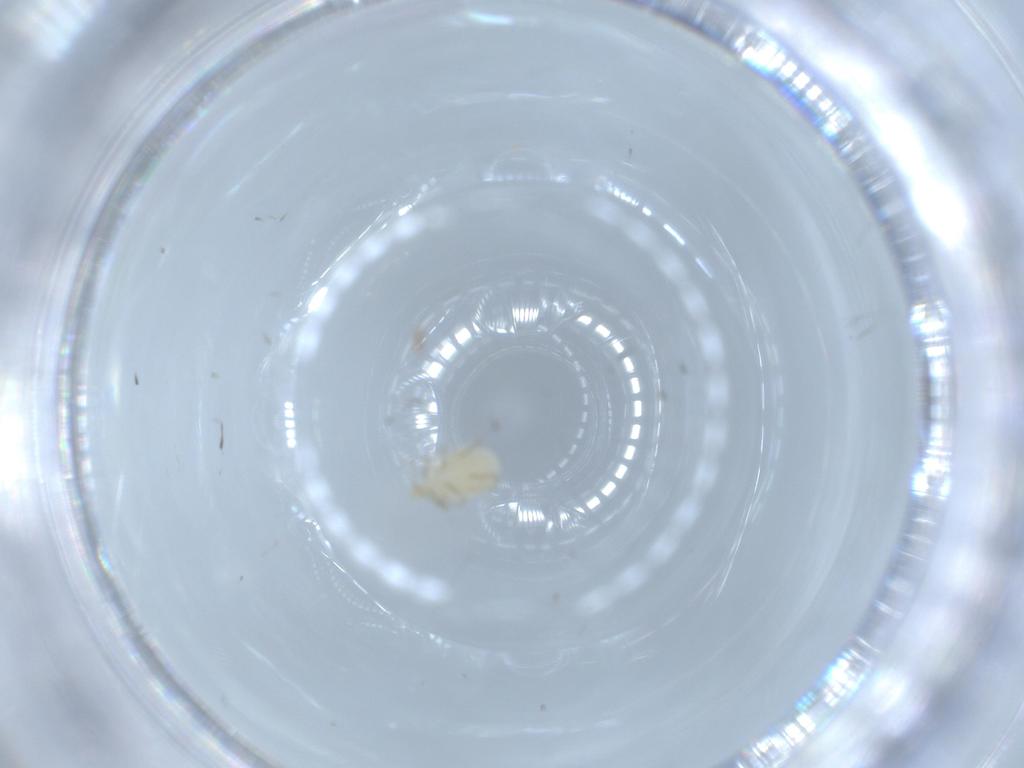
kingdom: Animalia
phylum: Arthropoda
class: Arachnida
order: Trombidiformes
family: Erythraeidae
